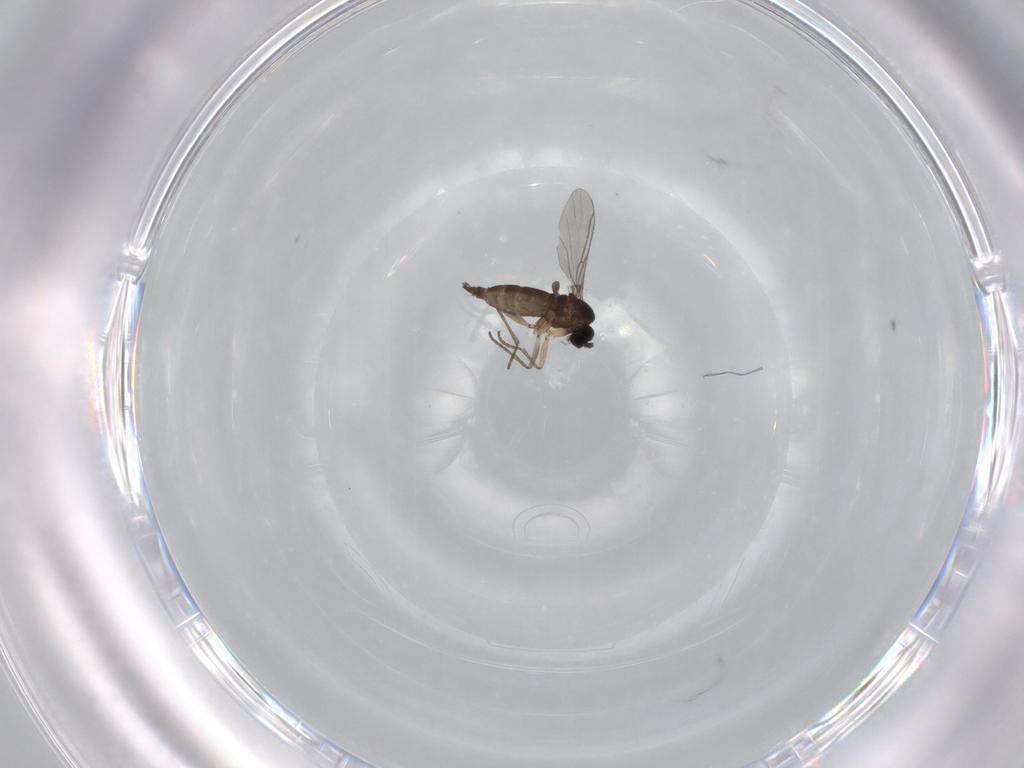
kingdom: Animalia
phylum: Arthropoda
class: Insecta
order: Diptera
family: Sciaridae
